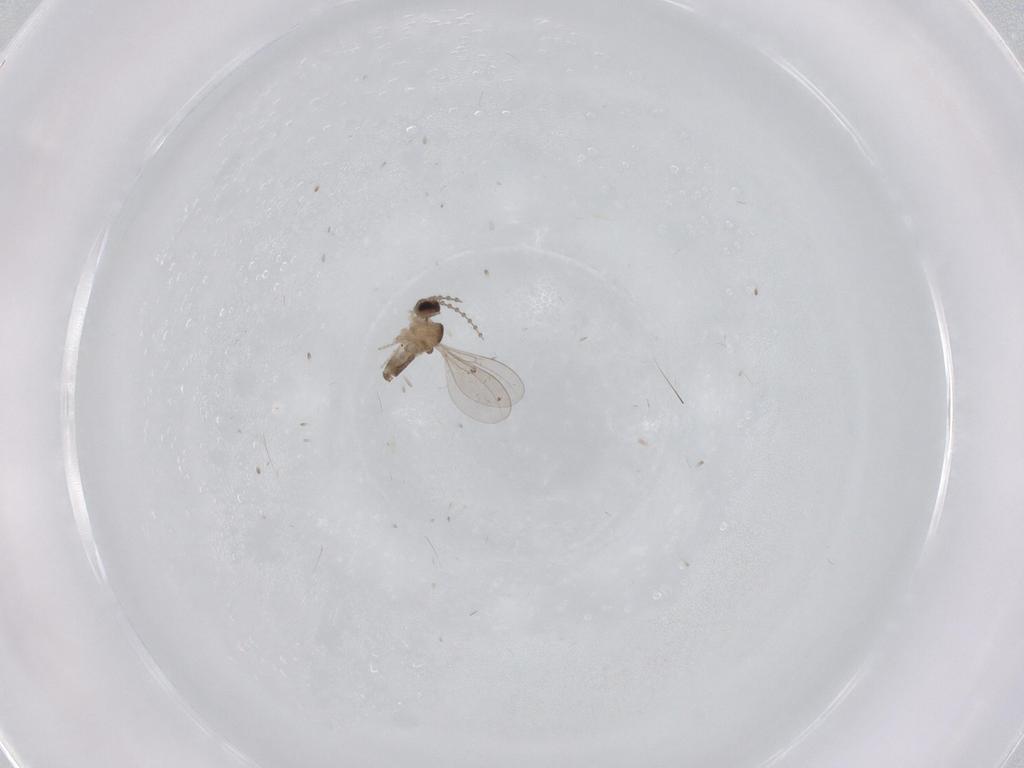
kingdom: Animalia
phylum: Arthropoda
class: Insecta
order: Diptera
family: Cecidomyiidae
